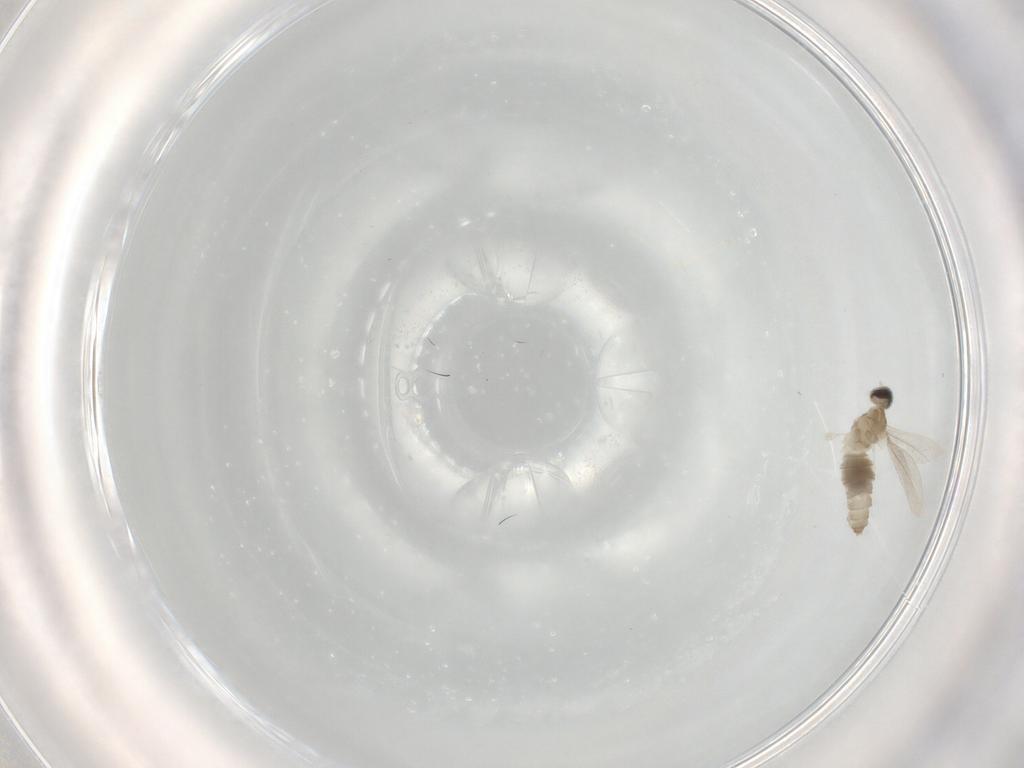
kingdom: Animalia
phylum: Arthropoda
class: Insecta
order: Diptera
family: Cecidomyiidae
